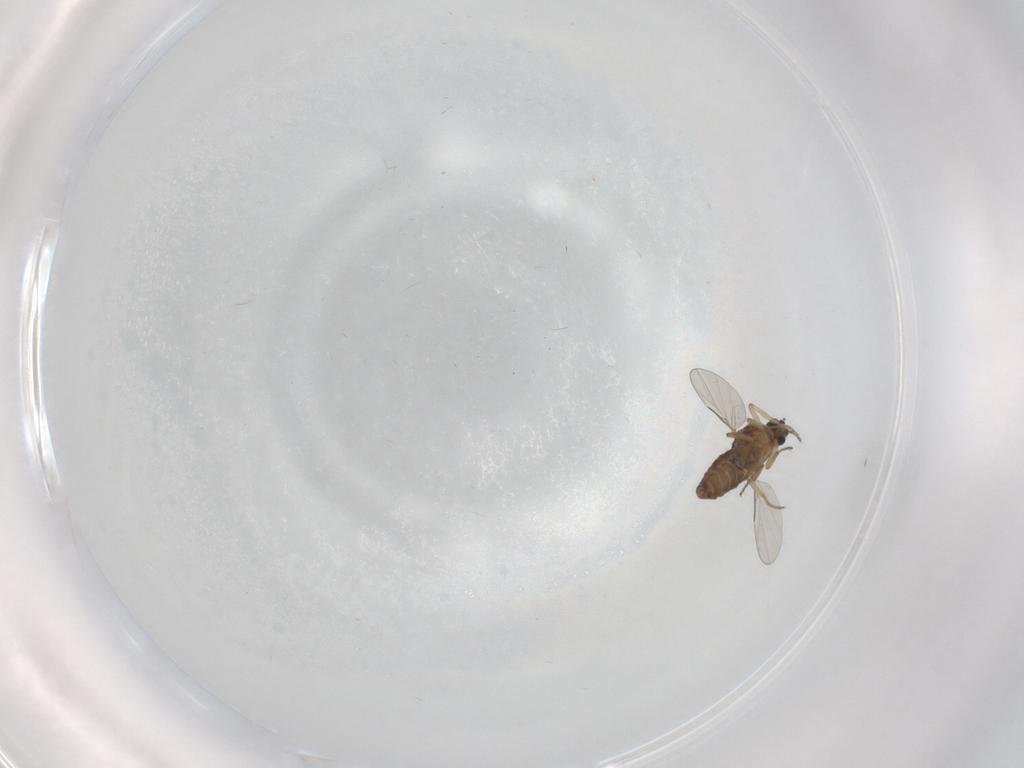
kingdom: Animalia
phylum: Arthropoda
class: Insecta
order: Diptera
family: Ceratopogonidae
